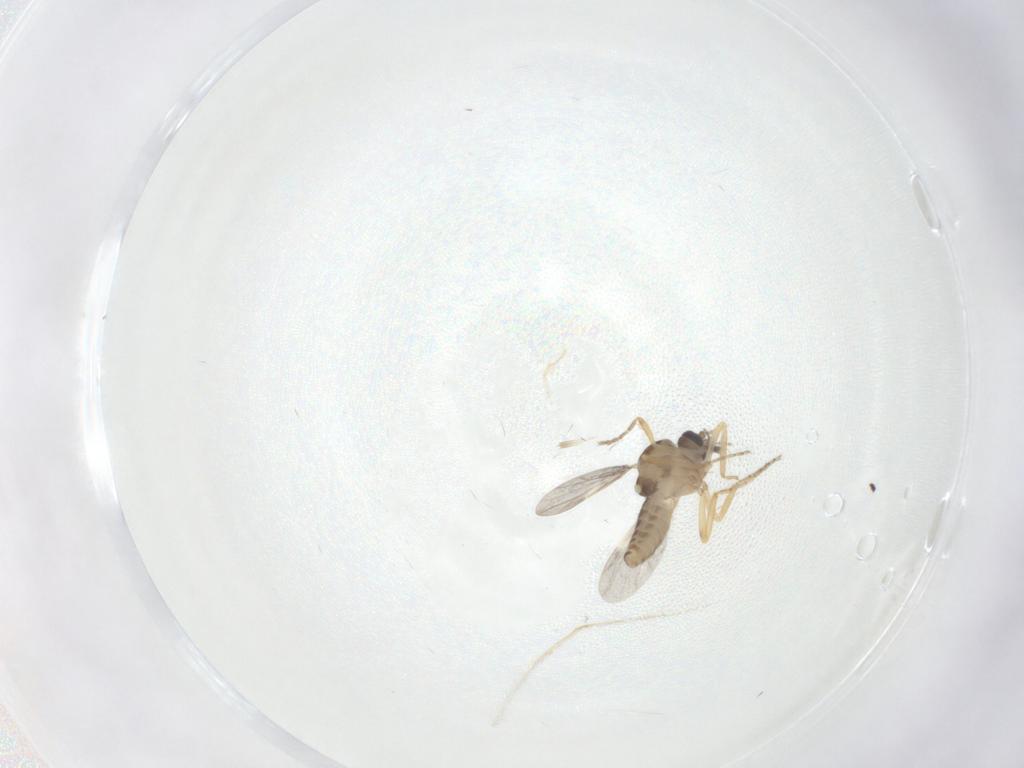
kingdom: Animalia
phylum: Arthropoda
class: Insecta
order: Diptera
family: Ceratopogonidae
